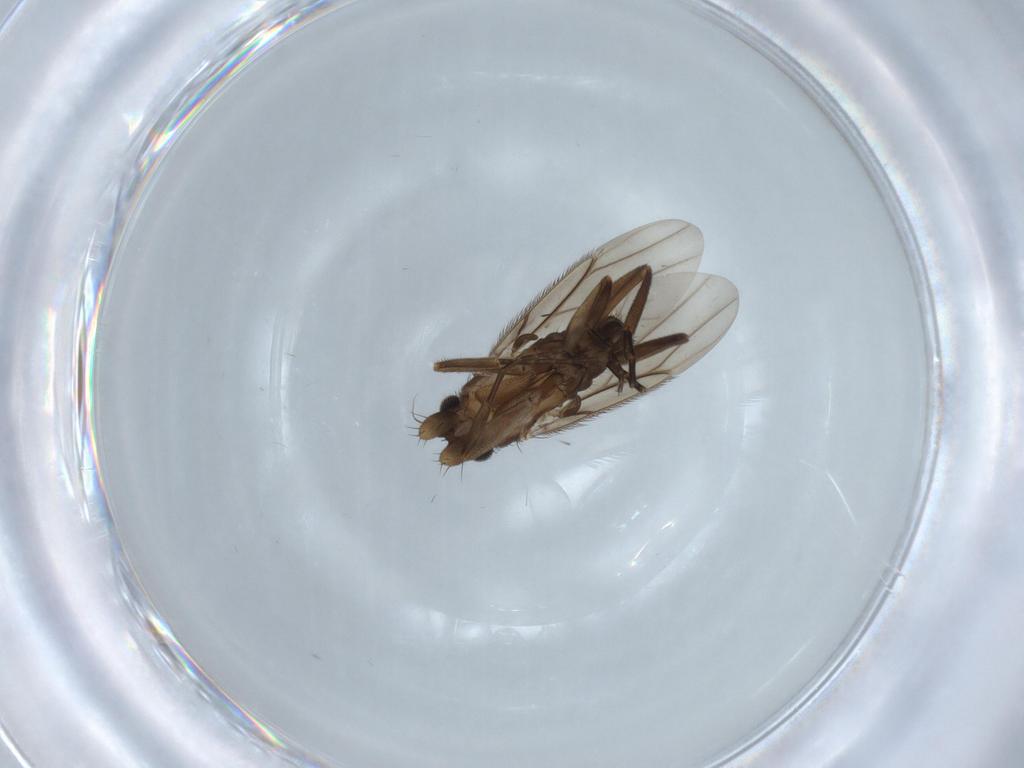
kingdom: Animalia
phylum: Arthropoda
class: Insecta
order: Diptera
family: Phoridae
